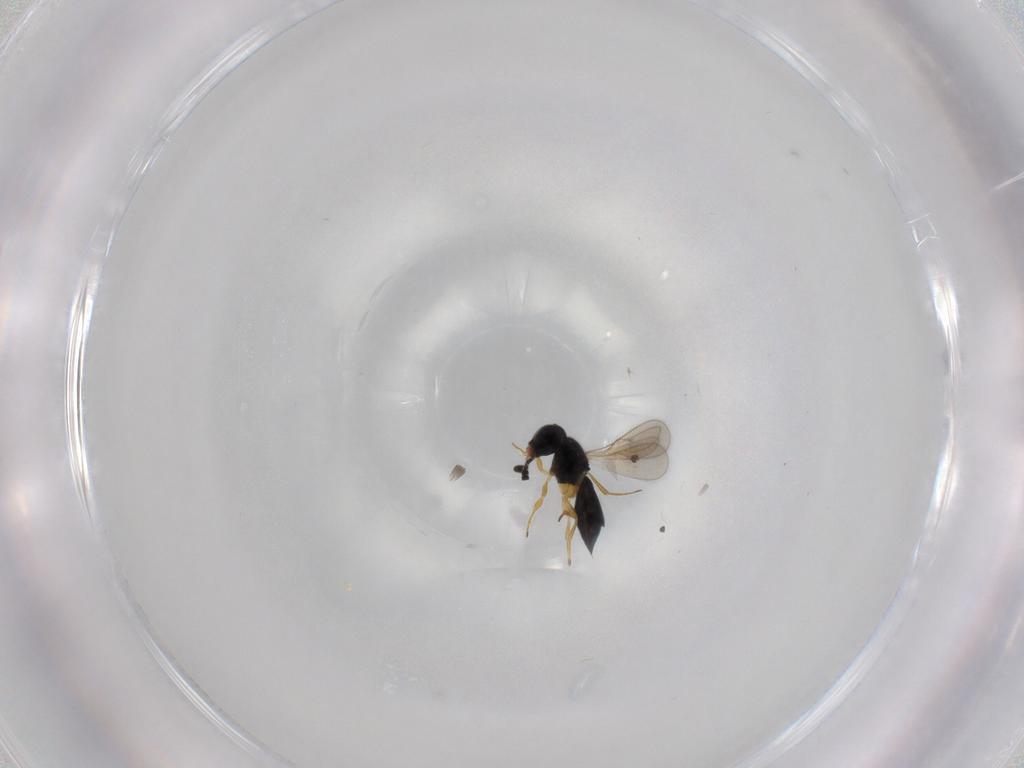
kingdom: Animalia
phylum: Arthropoda
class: Insecta
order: Hymenoptera
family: Scelionidae
